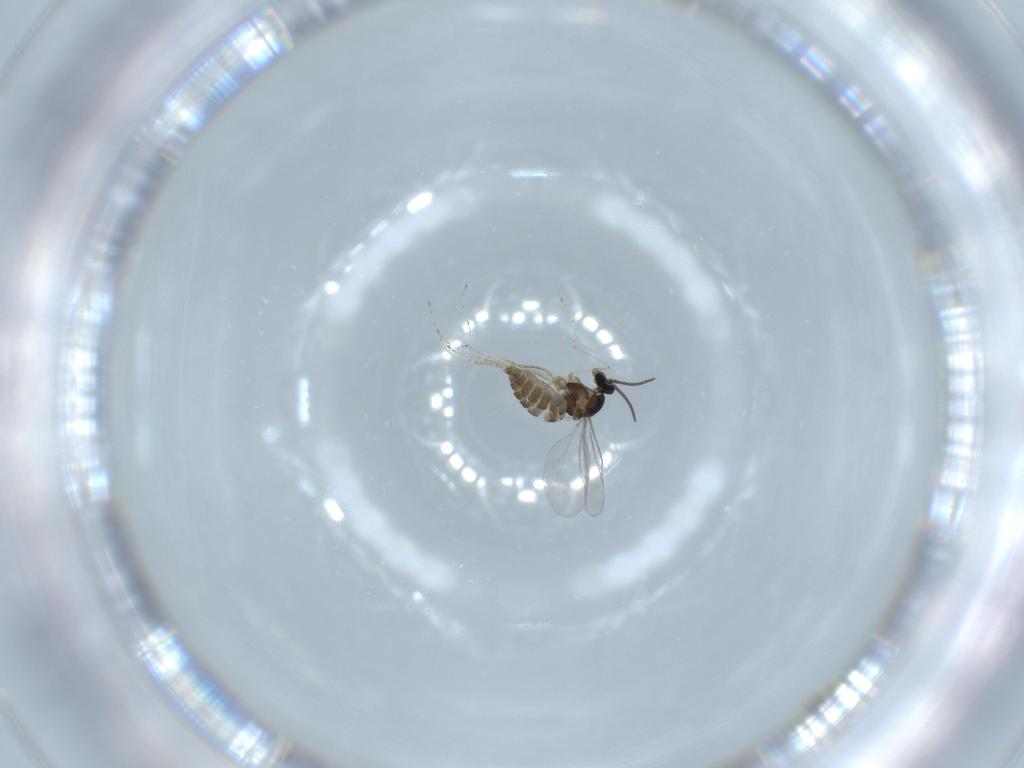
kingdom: Animalia
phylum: Arthropoda
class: Insecta
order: Diptera
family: Cecidomyiidae
